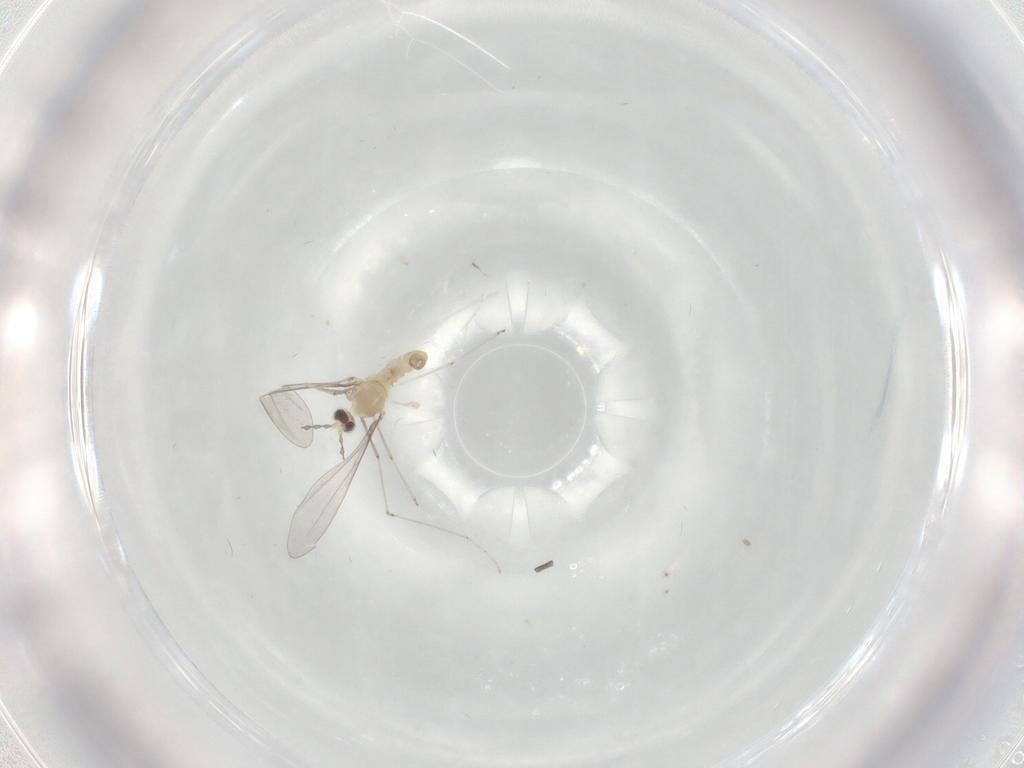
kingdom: Animalia
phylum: Arthropoda
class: Insecta
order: Diptera
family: Cecidomyiidae
